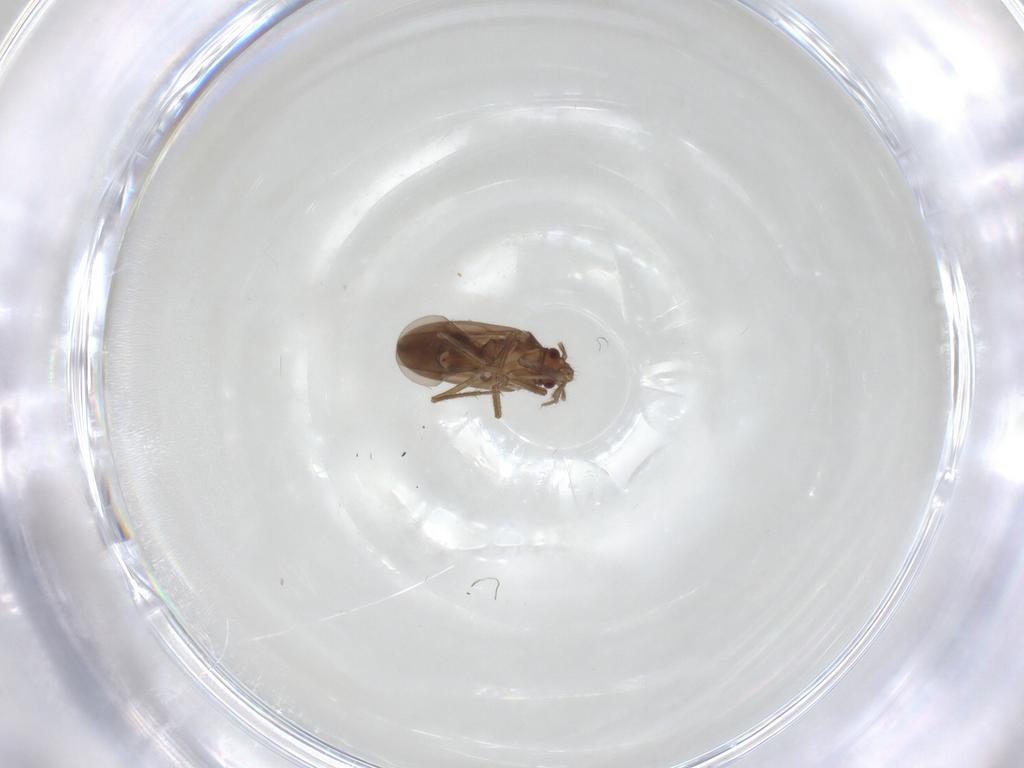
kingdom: Animalia
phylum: Arthropoda
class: Insecta
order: Hemiptera
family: Ceratocombidae
